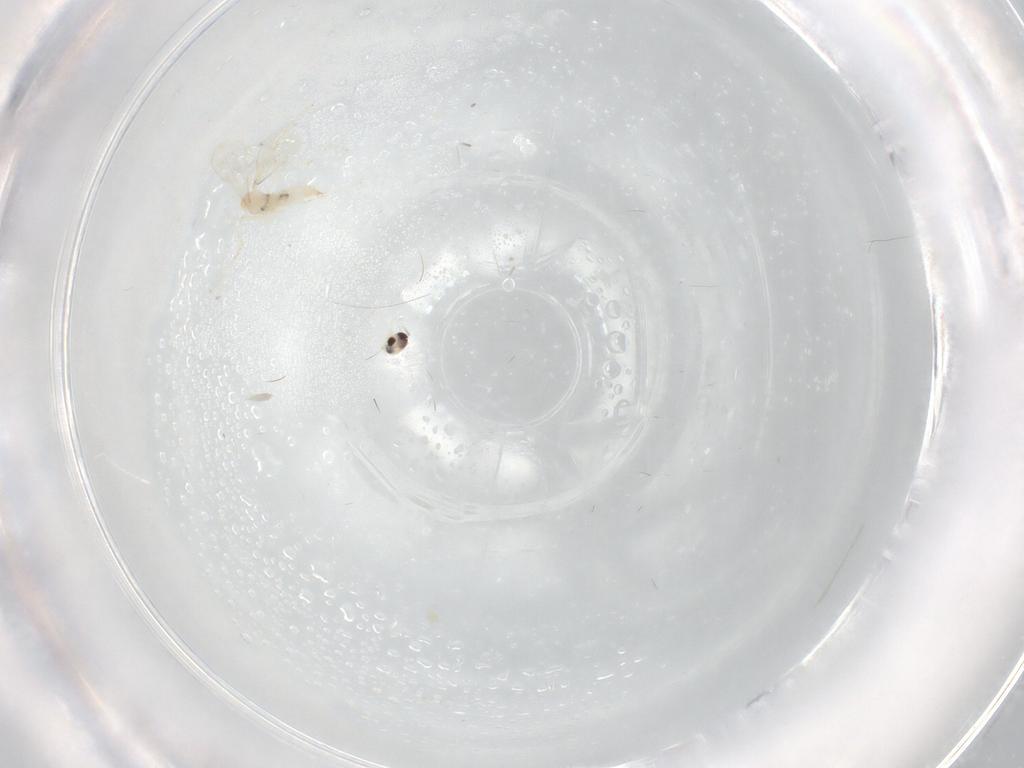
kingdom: Animalia
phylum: Arthropoda
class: Insecta
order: Diptera
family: Cecidomyiidae
